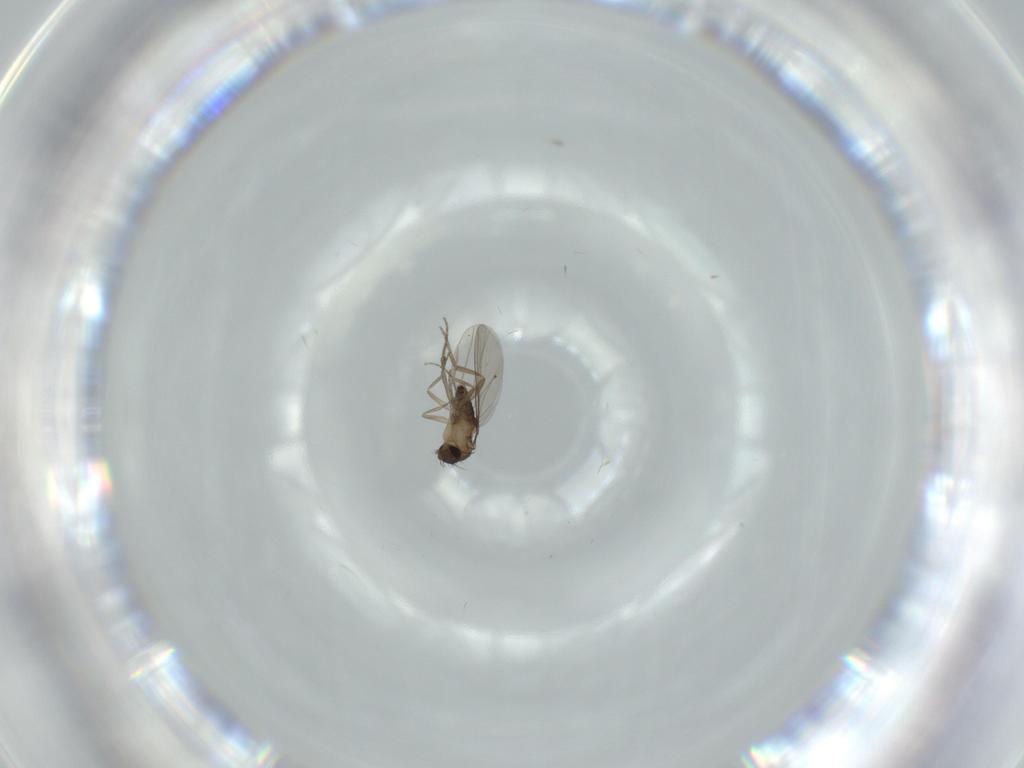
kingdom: Animalia
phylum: Arthropoda
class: Insecta
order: Diptera
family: Phoridae
